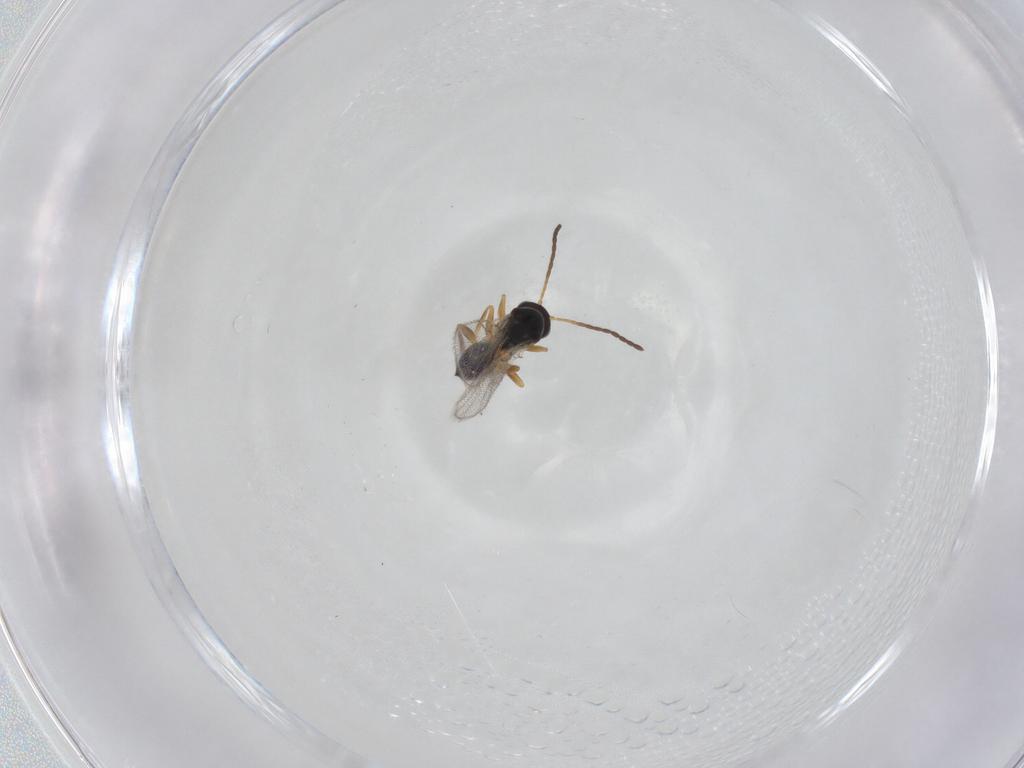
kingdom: Animalia
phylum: Arthropoda
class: Insecta
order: Hymenoptera
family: Figitidae
